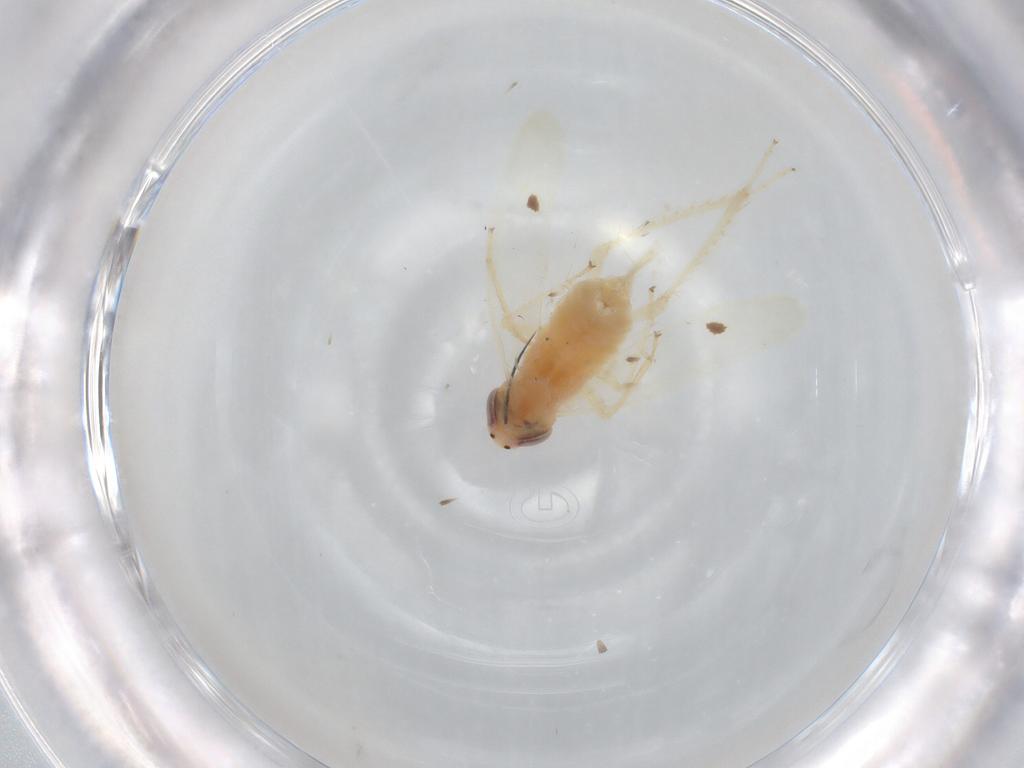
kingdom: Animalia
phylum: Arthropoda
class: Insecta
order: Hemiptera
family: Cicadellidae
